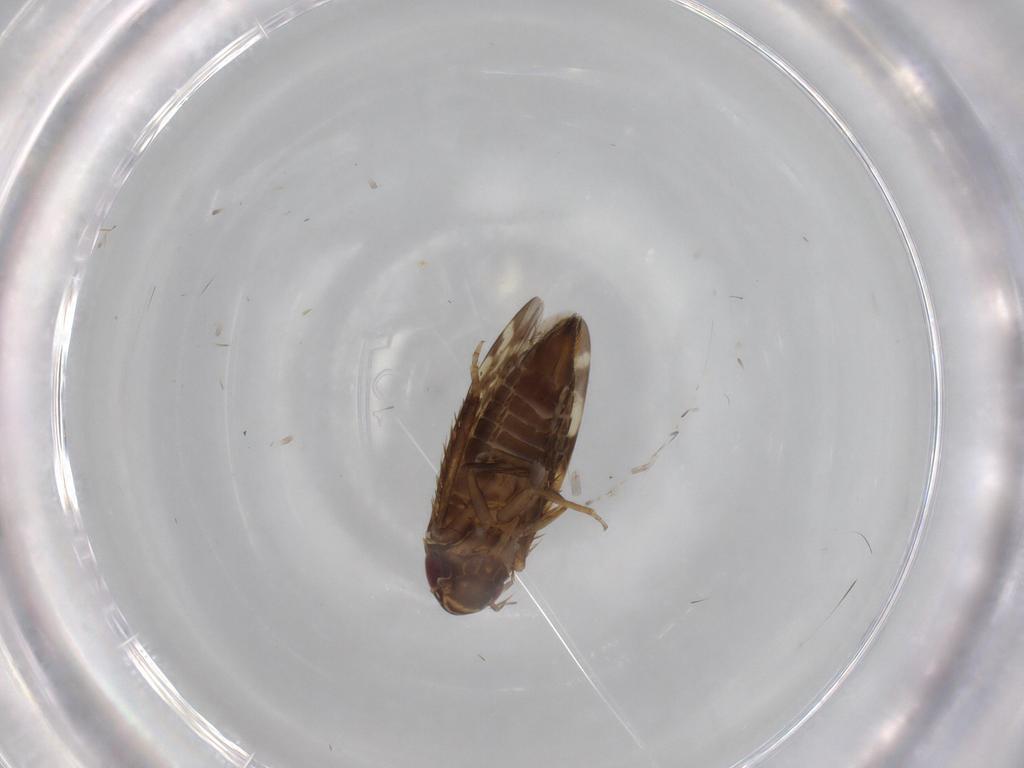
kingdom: Animalia
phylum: Arthropoda
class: Insecta
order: Hemiptera
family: Cicadellidae
